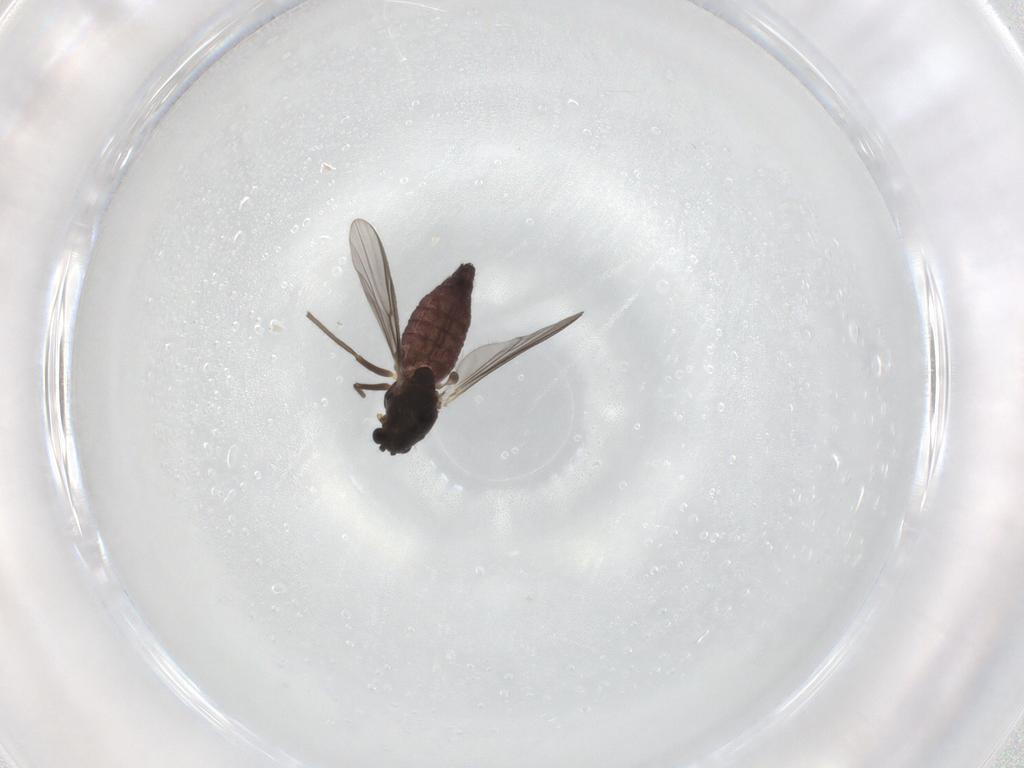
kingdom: Animalia
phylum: Arthropoda
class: Insecta
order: Diptera
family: Chironomidae
